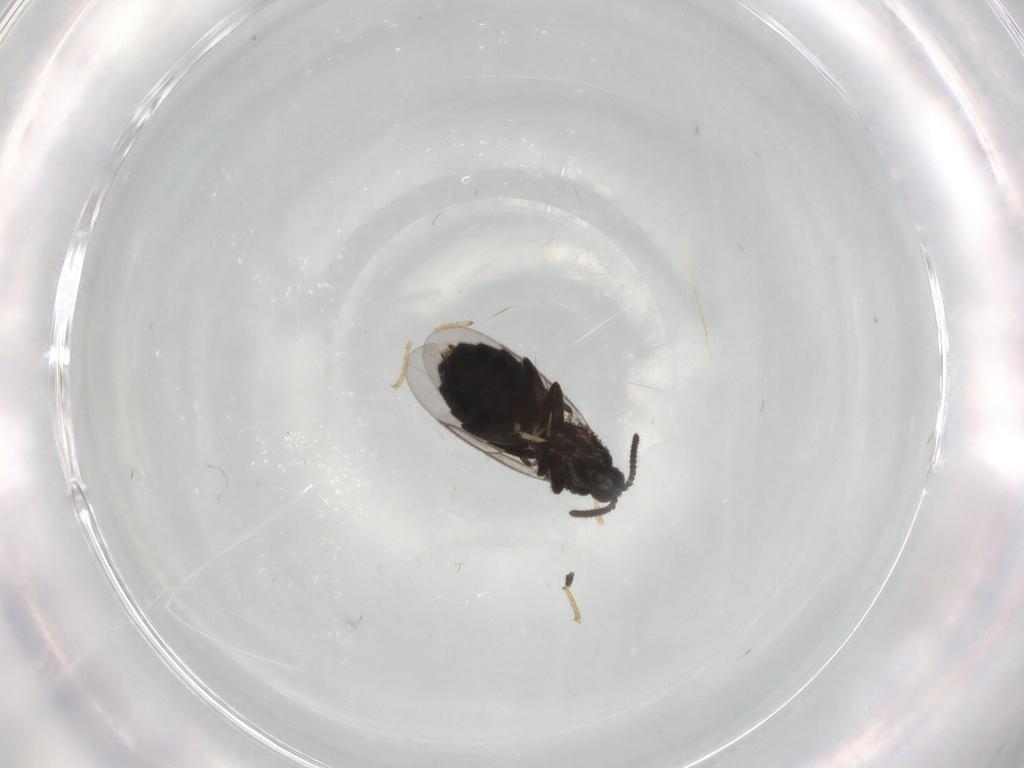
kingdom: Animalia
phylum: Arthropoda
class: Insecta
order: Diptera
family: Scatopsidae
